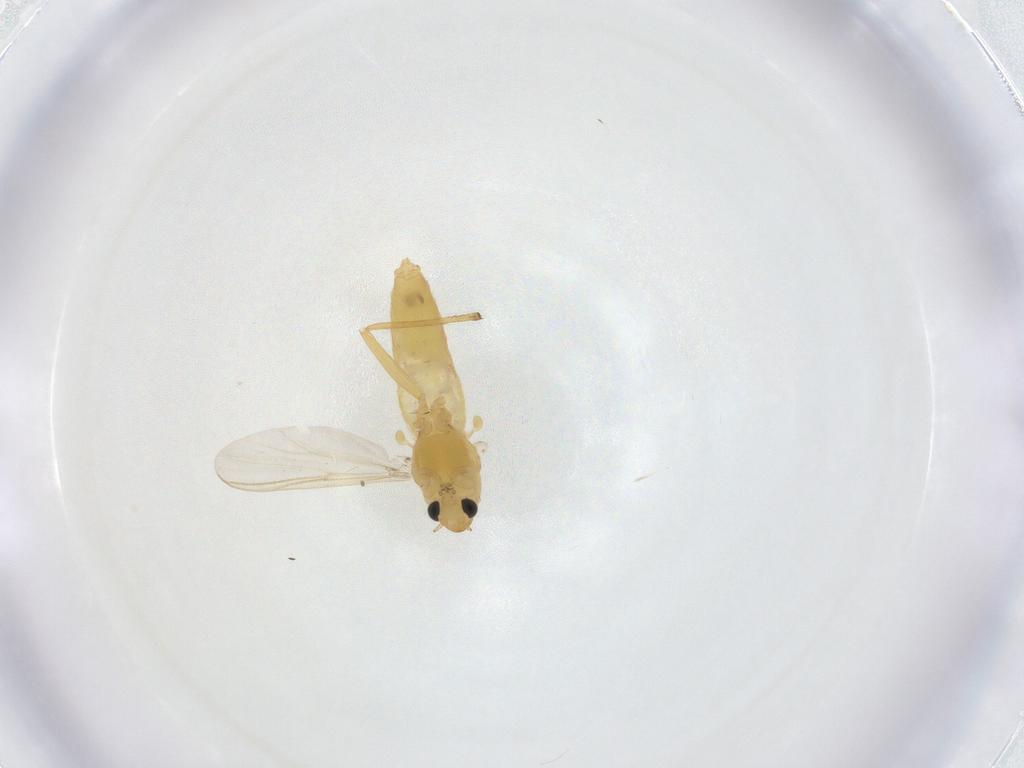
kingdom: Animalia
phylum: Arthropoda
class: Insecta
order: Diptera
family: Chironomidae
